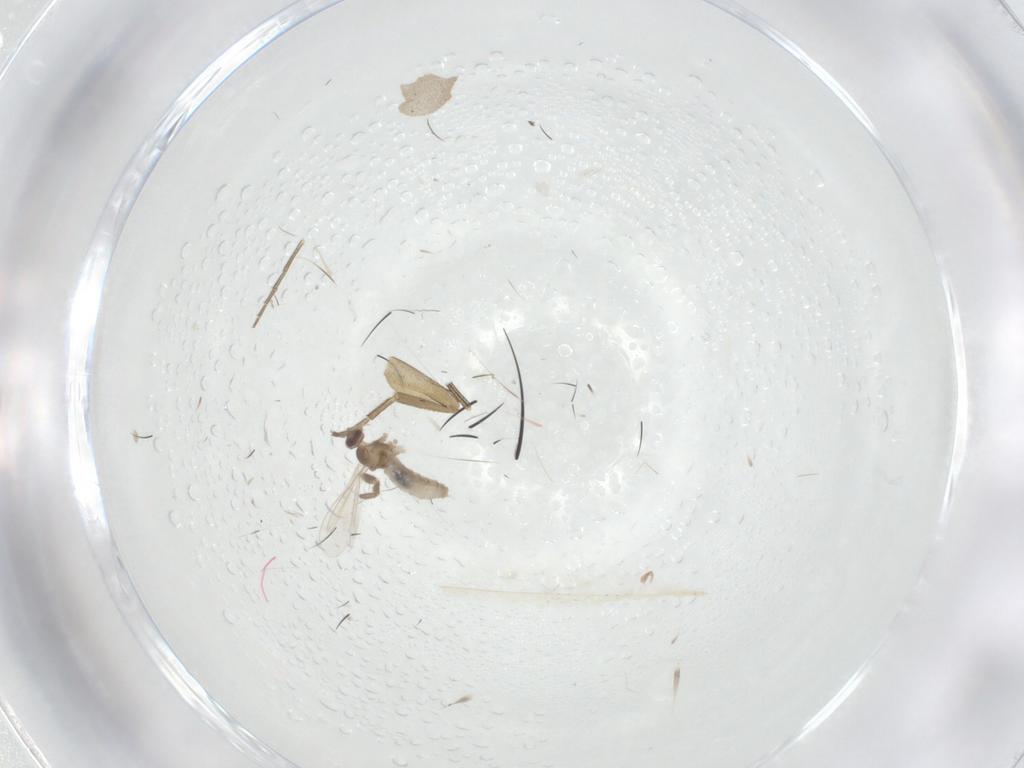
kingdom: Animalia
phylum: Arthropoda
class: Insecta
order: Diptera
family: Cecidomyiidae
